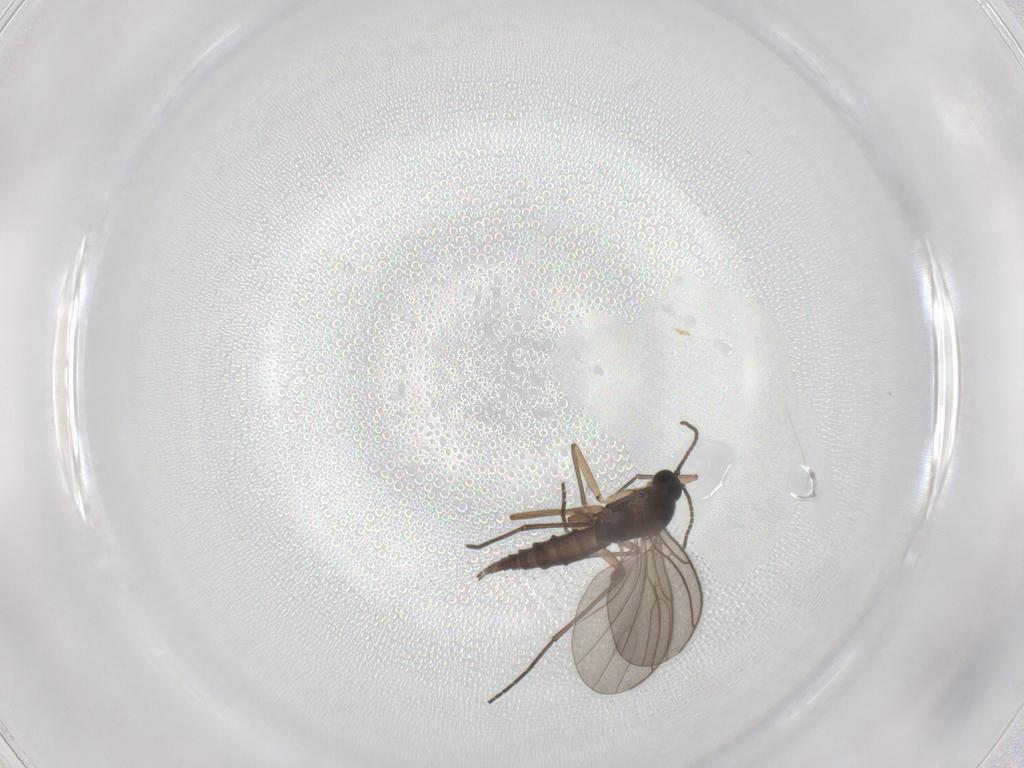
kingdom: Animalia
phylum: Arthropoda
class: Insecta
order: Diptera
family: Sciaridae
